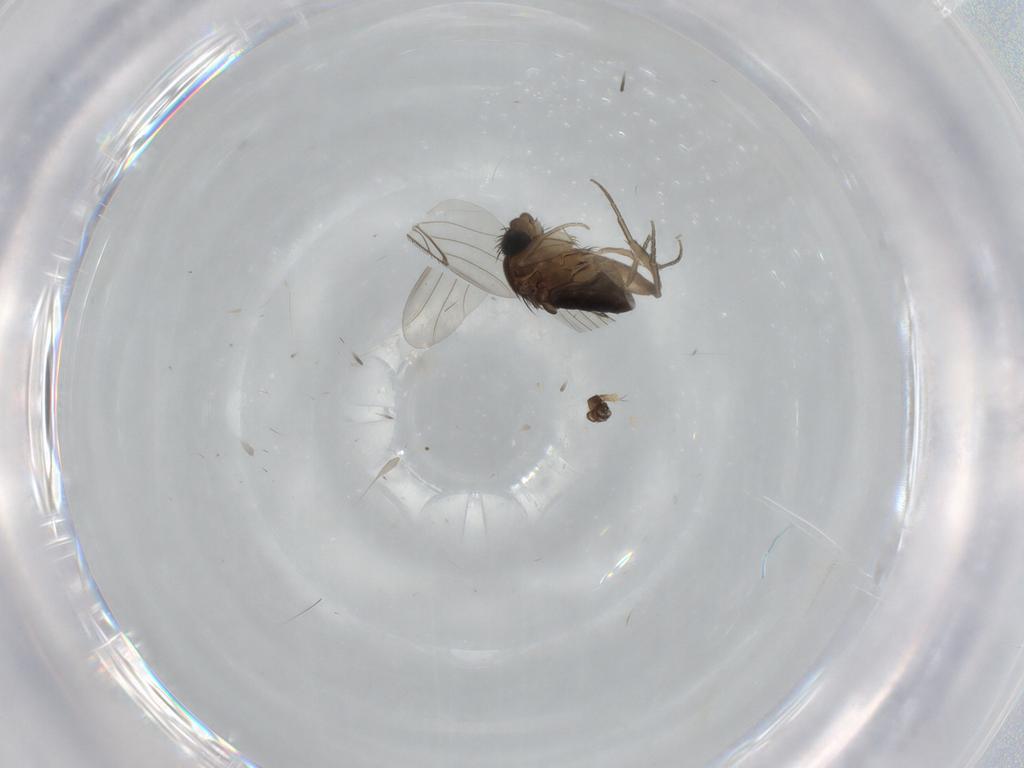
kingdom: Animalia
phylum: Arthropoda
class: Insecta
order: Diptera
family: Phoridae
